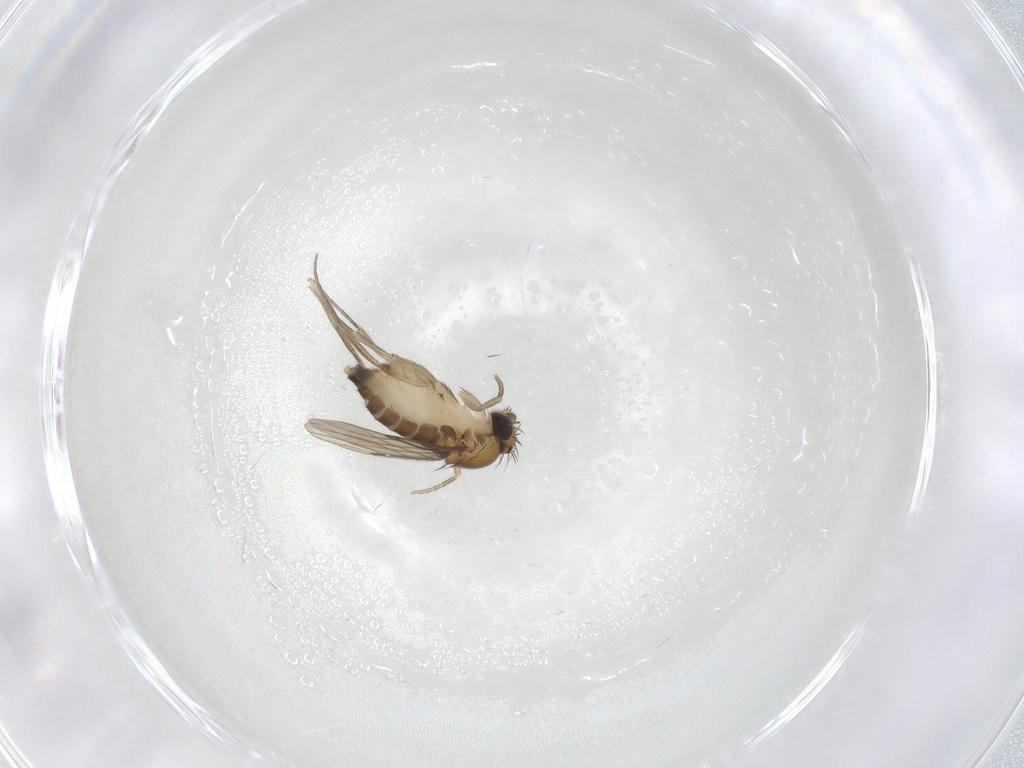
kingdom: Animalia
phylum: Arthropoda
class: Insecta
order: Diptera
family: Phoridae
